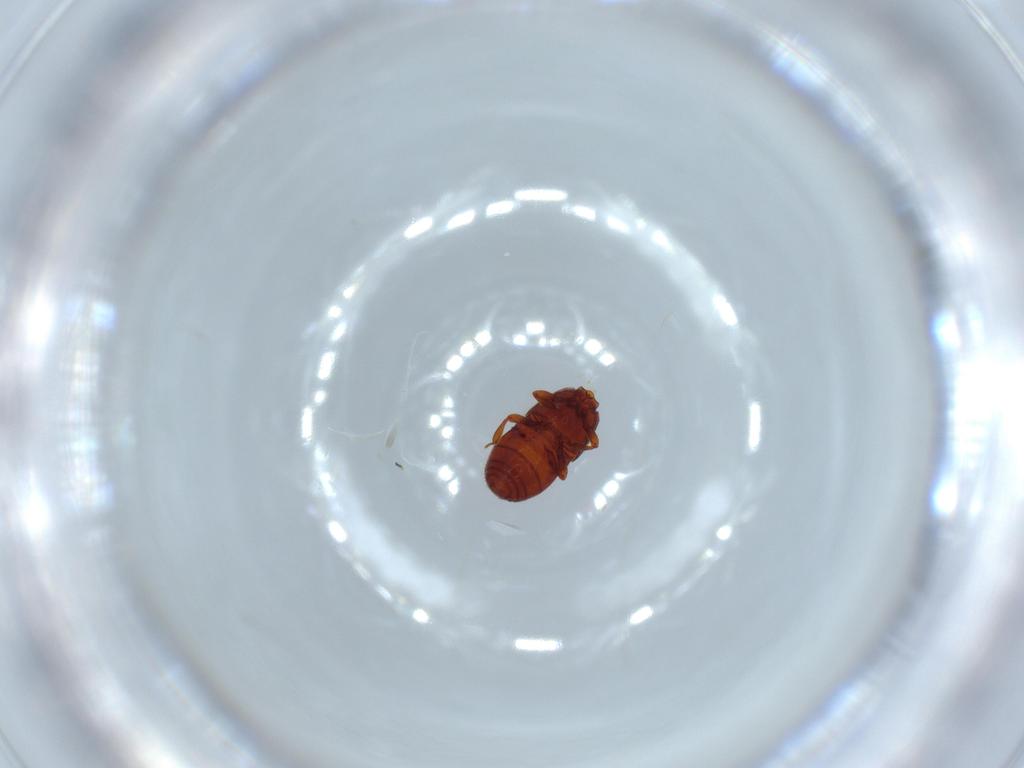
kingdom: Animalia
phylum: Arthropoda
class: Insecta
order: Coleoptera
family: Staphylinidae
